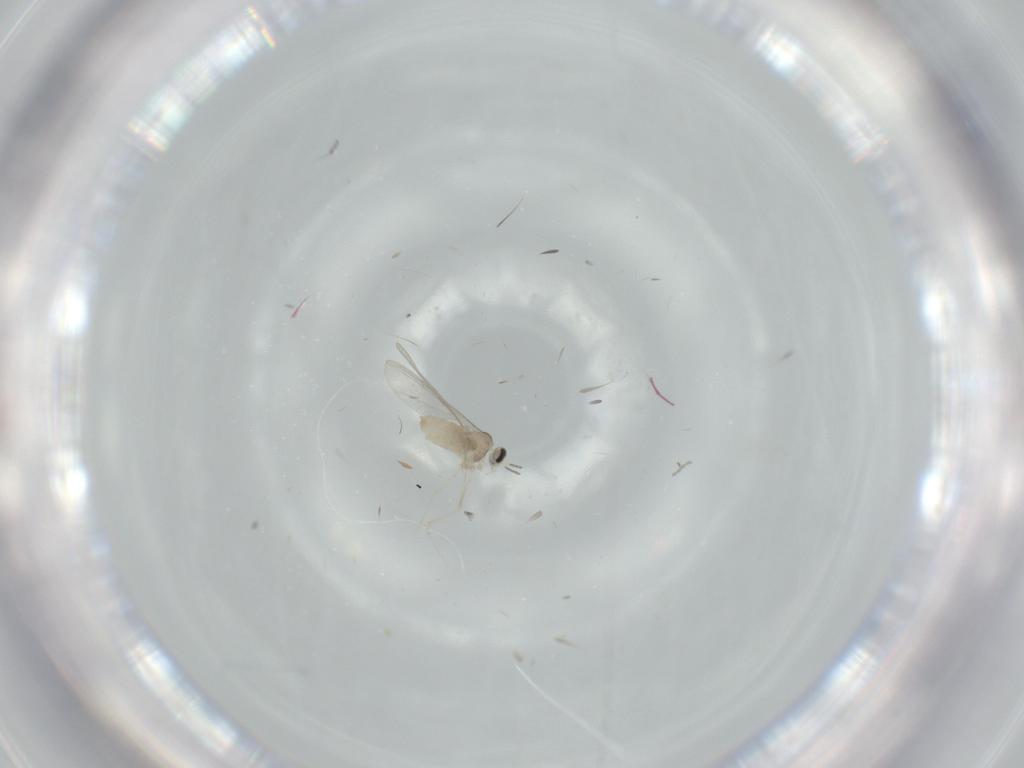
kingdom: Animalia
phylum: Arthropoda
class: Insecta
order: Diptera
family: Cecidomyiidae
